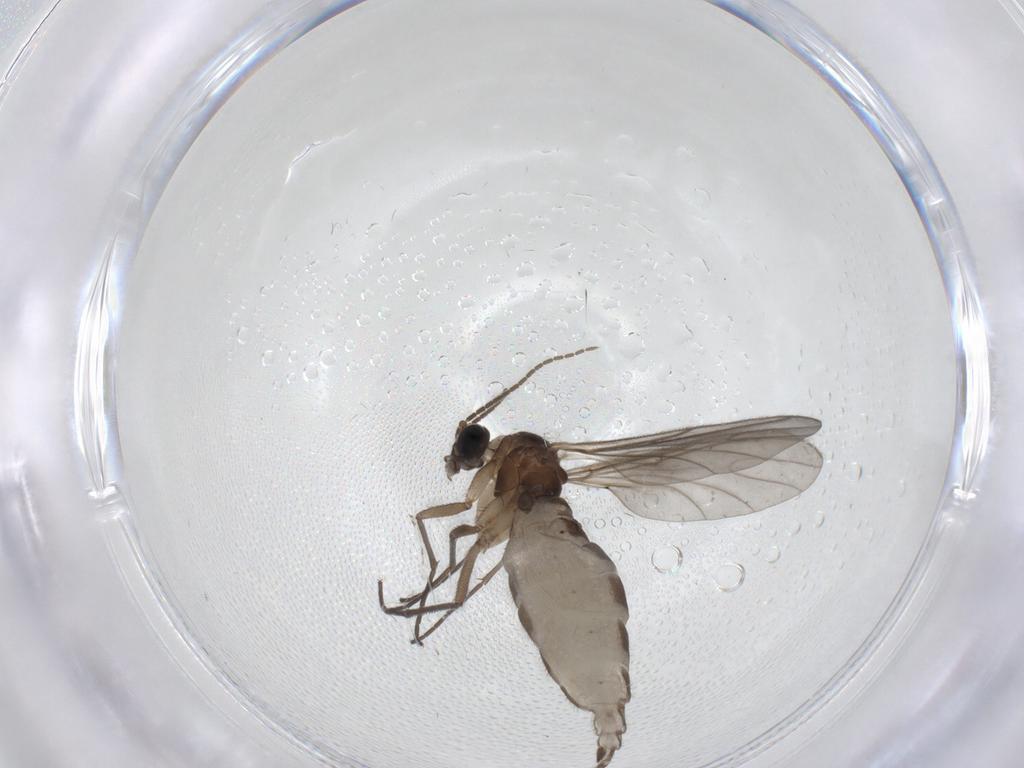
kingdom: Animalia
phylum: Arthropoda
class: Insecta
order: Diptera
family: Sciaridae
